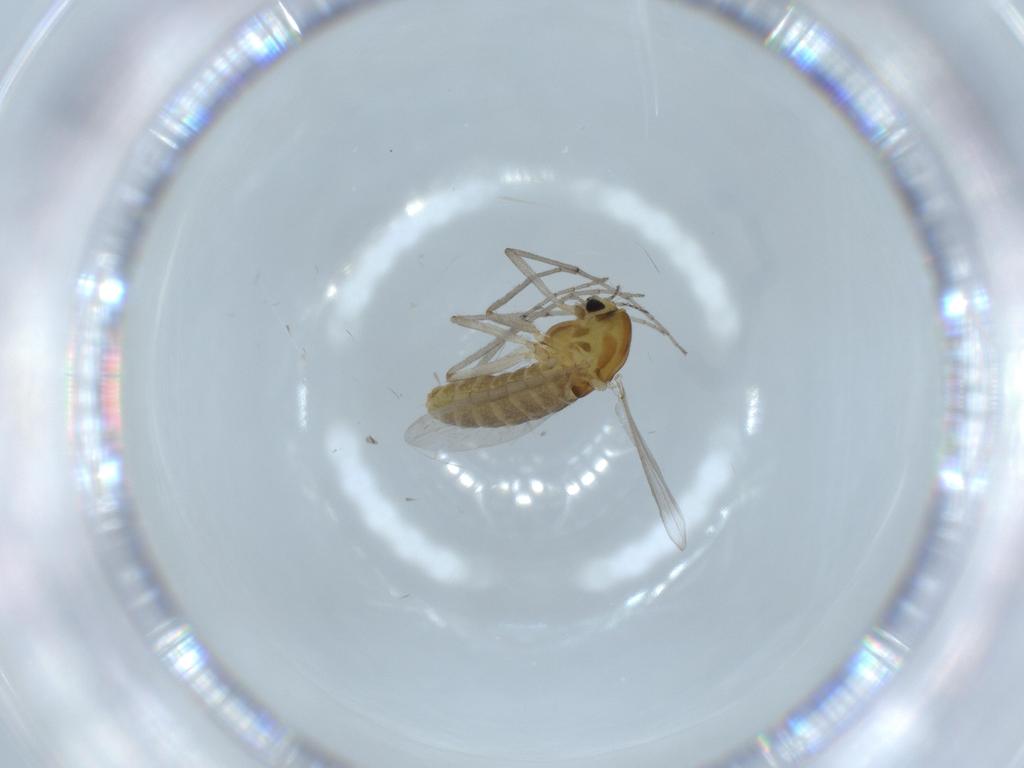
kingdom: Animalia
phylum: Arthropoda
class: Insecta
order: Diptera
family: Chironomidae
